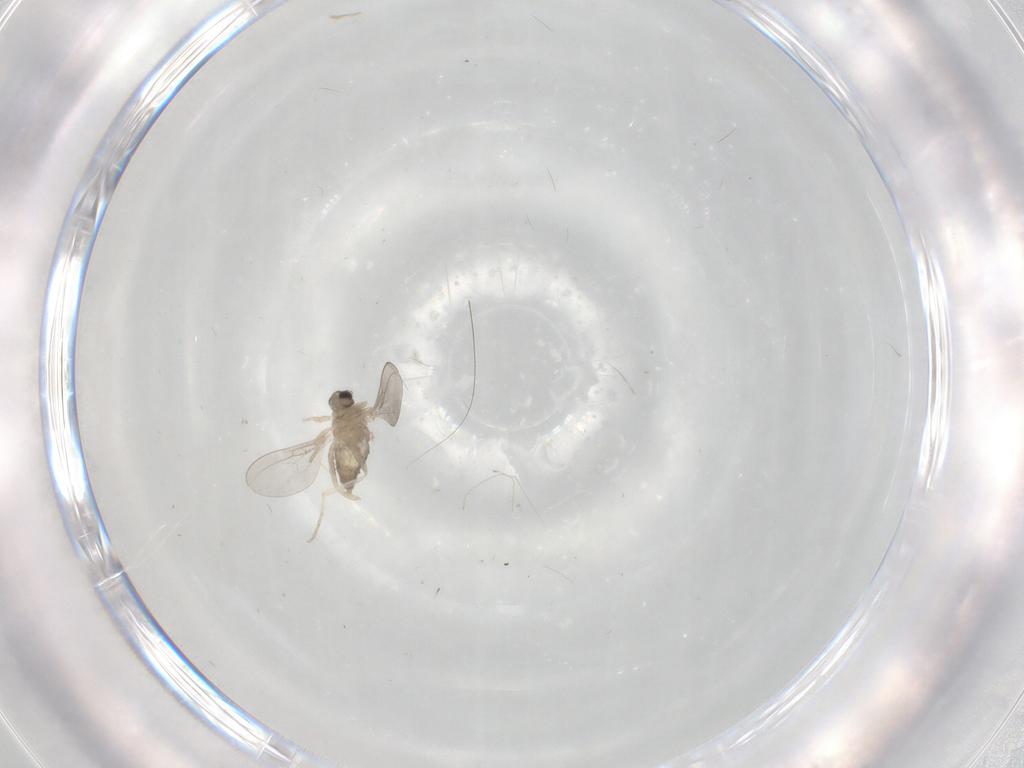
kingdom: Animalia
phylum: Arthropoda
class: Insecta
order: Diptera
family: Cecidomyiidae
